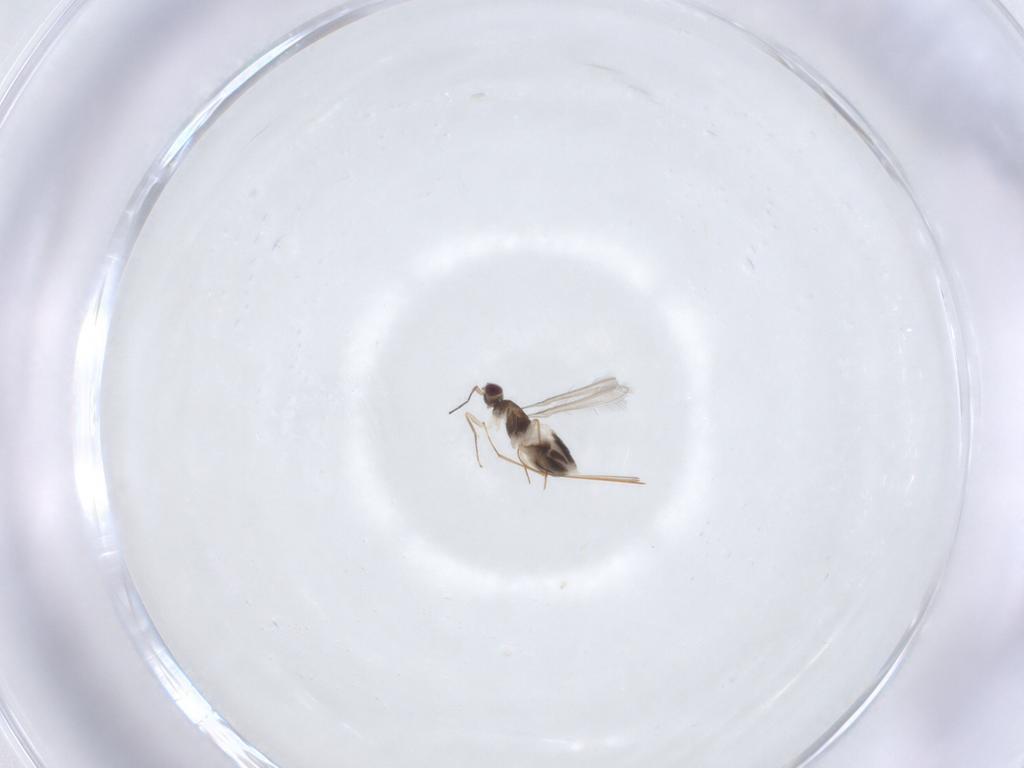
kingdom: Animalia
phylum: Arthropoda
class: Insecta
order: Hymenoptera
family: Mymaridae
